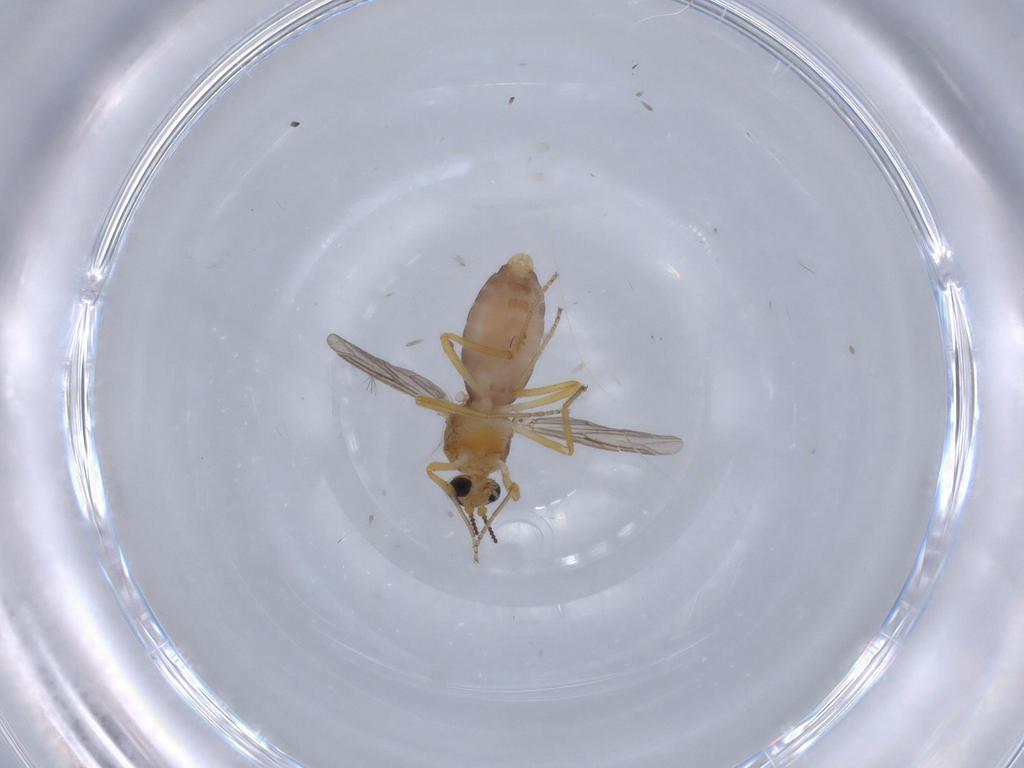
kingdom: Animalia
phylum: Arthropoda
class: Insecta
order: Diptera
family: Ceratopogonidae
